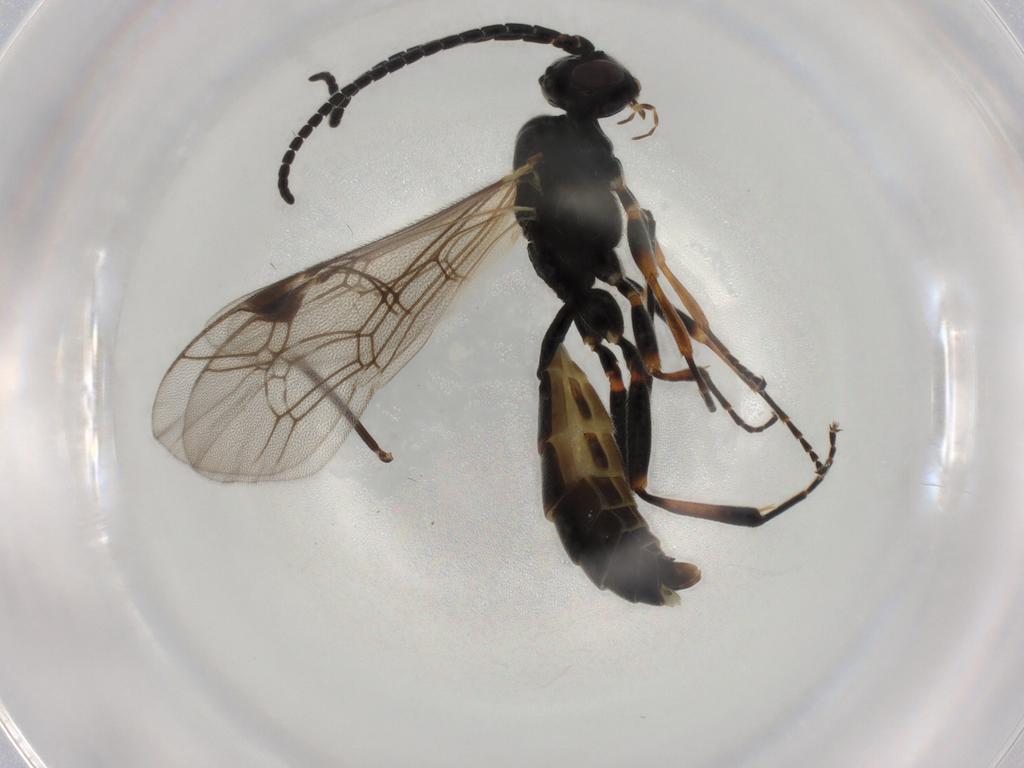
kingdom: Animalia
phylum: Arthropoda
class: Insecta
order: Hymenoptera
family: Ichneumonidae
